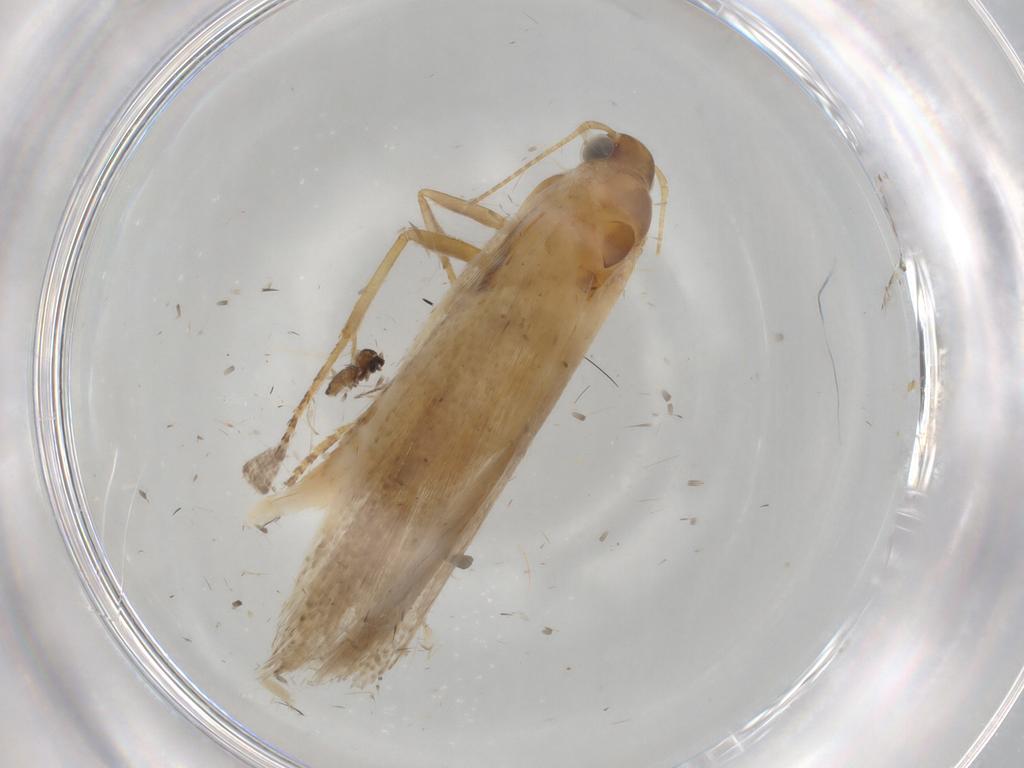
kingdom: Animalia
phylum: Arthropoda
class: Insecta
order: Lepidoptera
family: Gelechiidae
